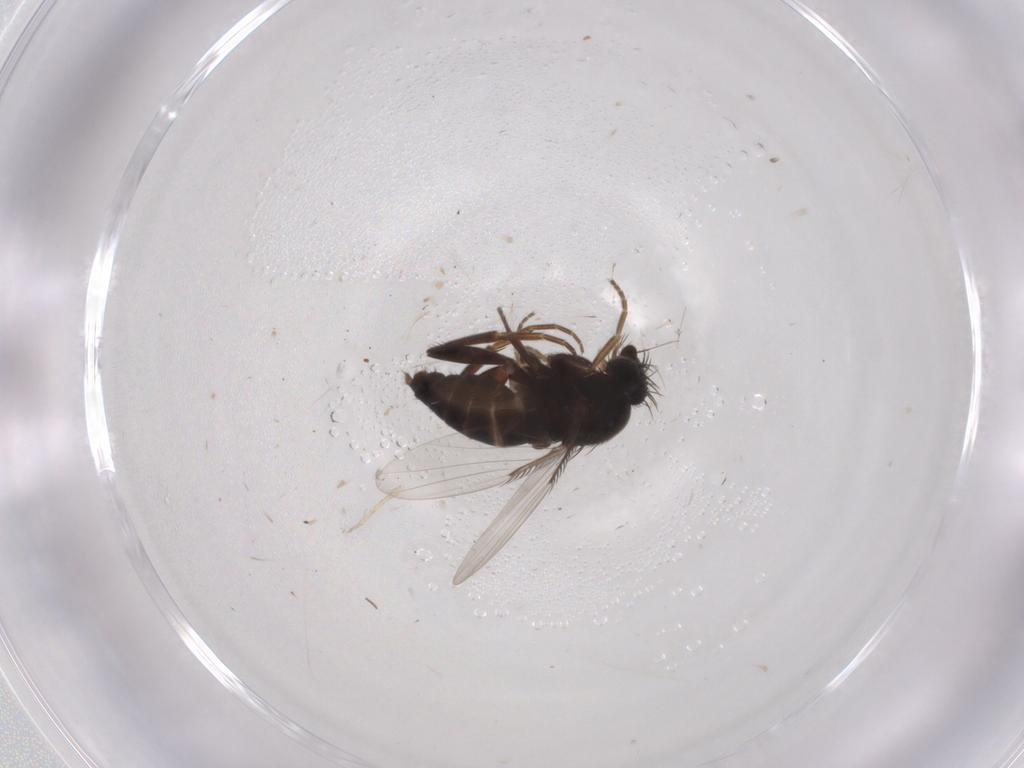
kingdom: Animalia
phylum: Arthropoda
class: Insecta
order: Diptera
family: Phoridae
